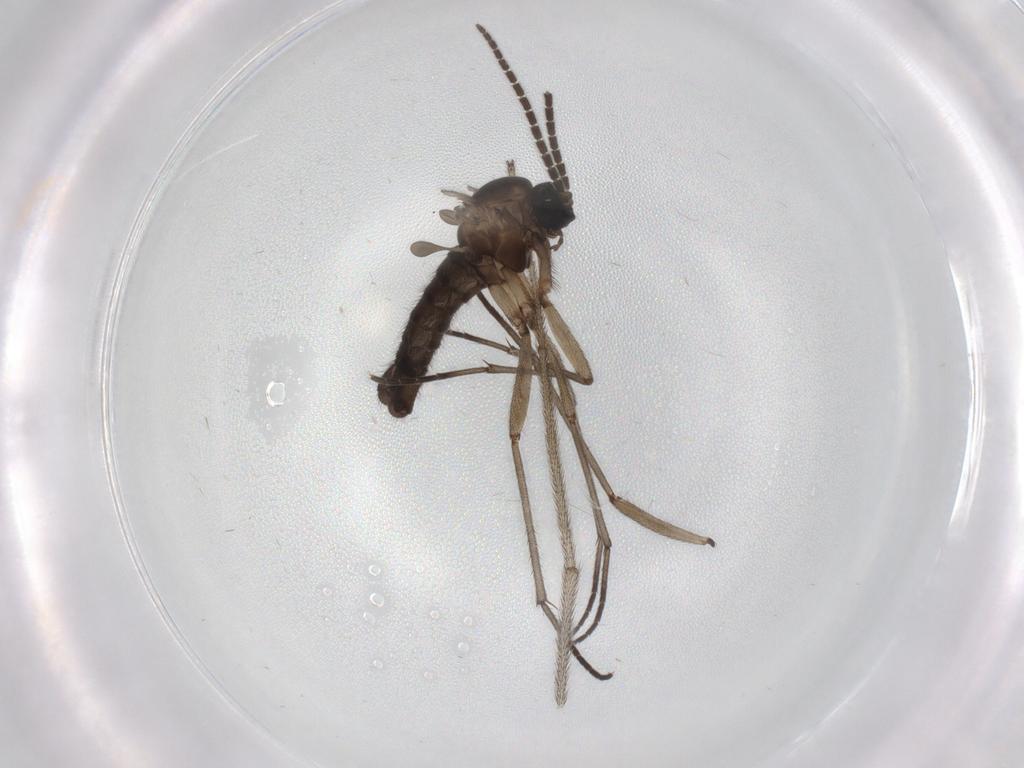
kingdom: Animalia
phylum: Arthropoda
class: Insecta
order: Diptera
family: Sciaridae
